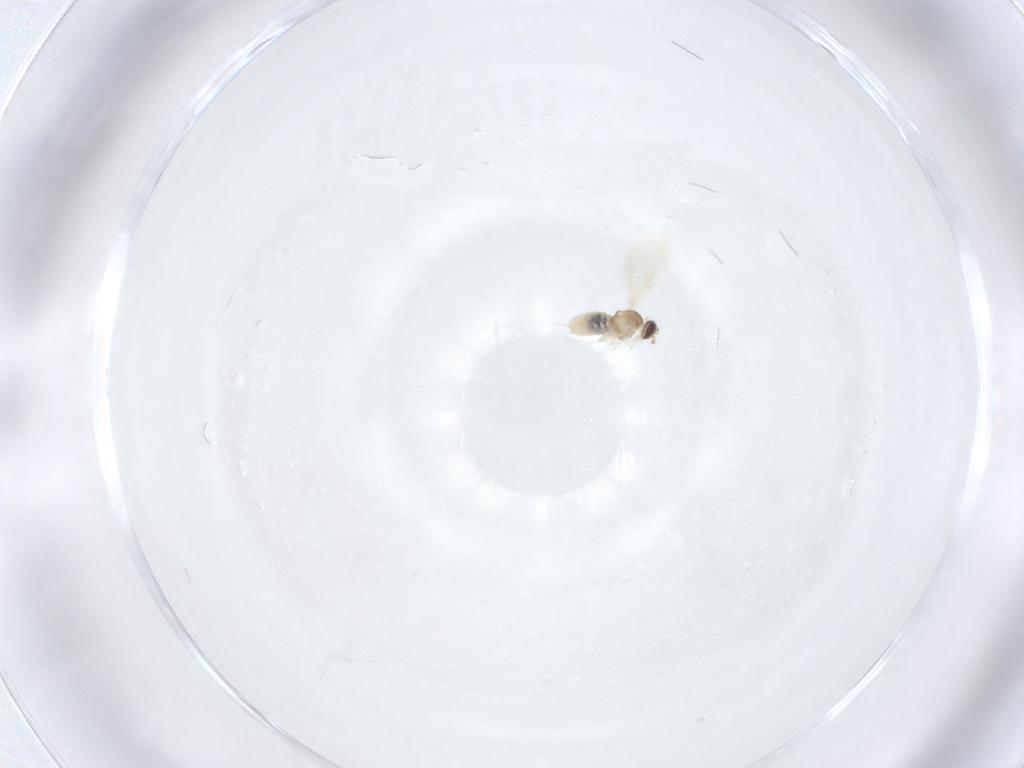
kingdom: Animalia
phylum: Arthropoda
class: Insecta
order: Diptera
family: Cecidomyiidae
